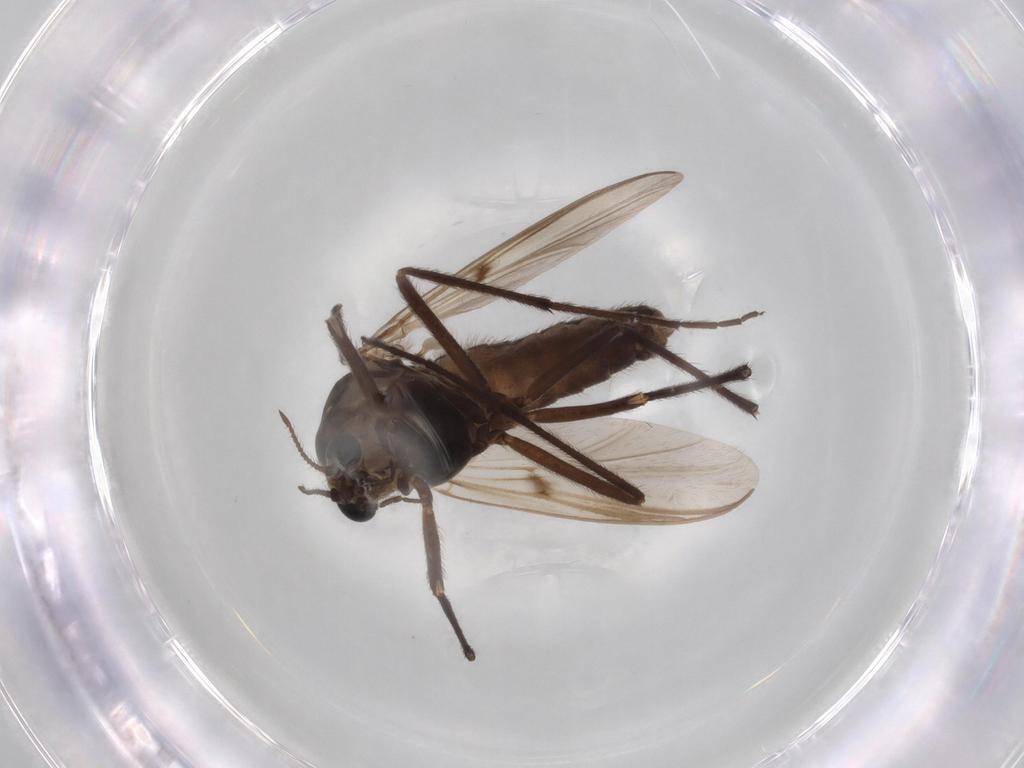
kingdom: Animalia
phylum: Arthropoda
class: Insecta
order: Diptera
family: Chironomidae
